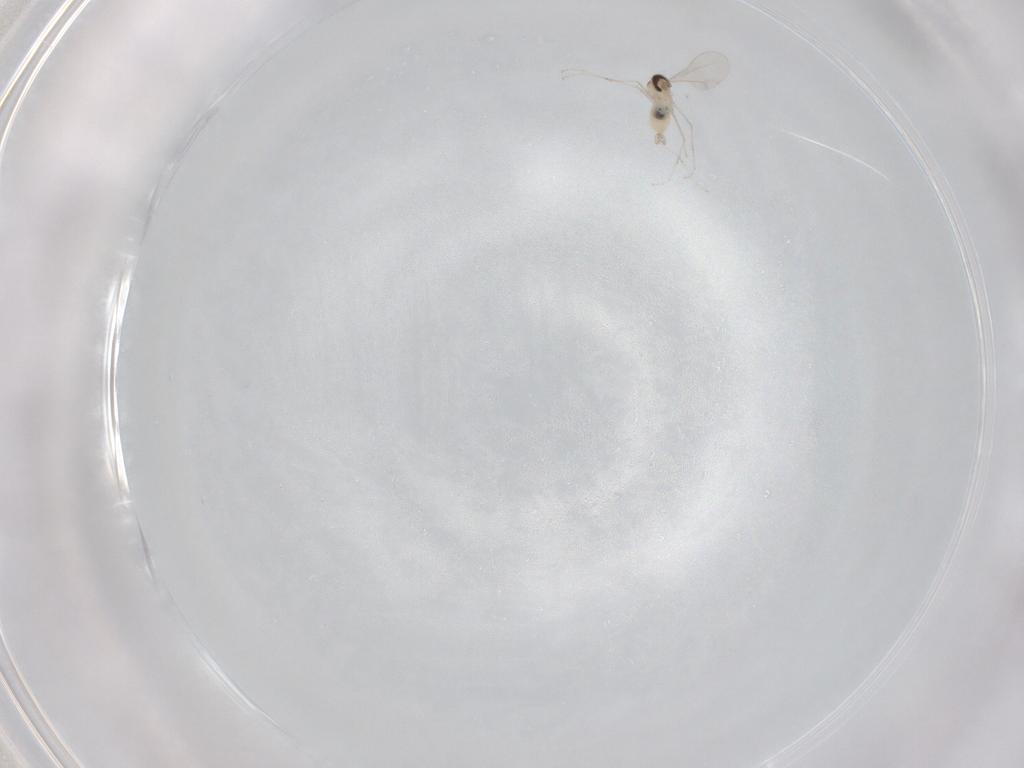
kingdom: Animalia
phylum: Arthropoda
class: Insecta
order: Diptera
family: Cecidomyiidae
